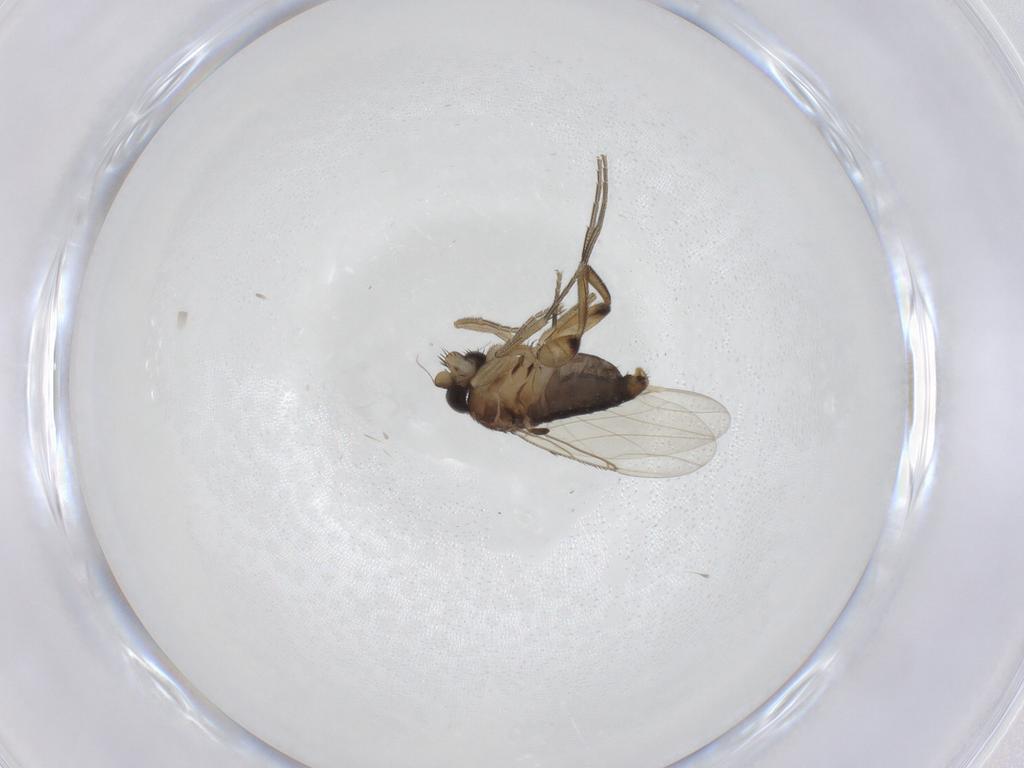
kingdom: Animalia
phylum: Arthropoda
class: Insecta
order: Diptera
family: Phoridae
